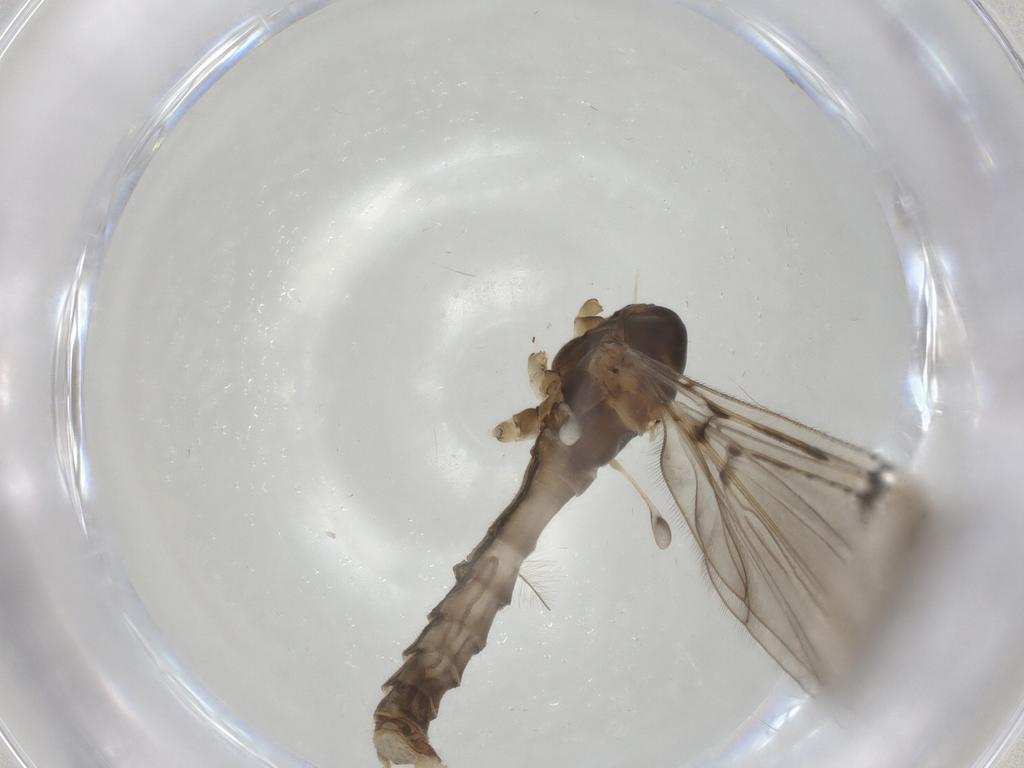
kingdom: Animalia
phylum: Arthropoda
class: Insecta
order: Diptera
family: Limoniidae
